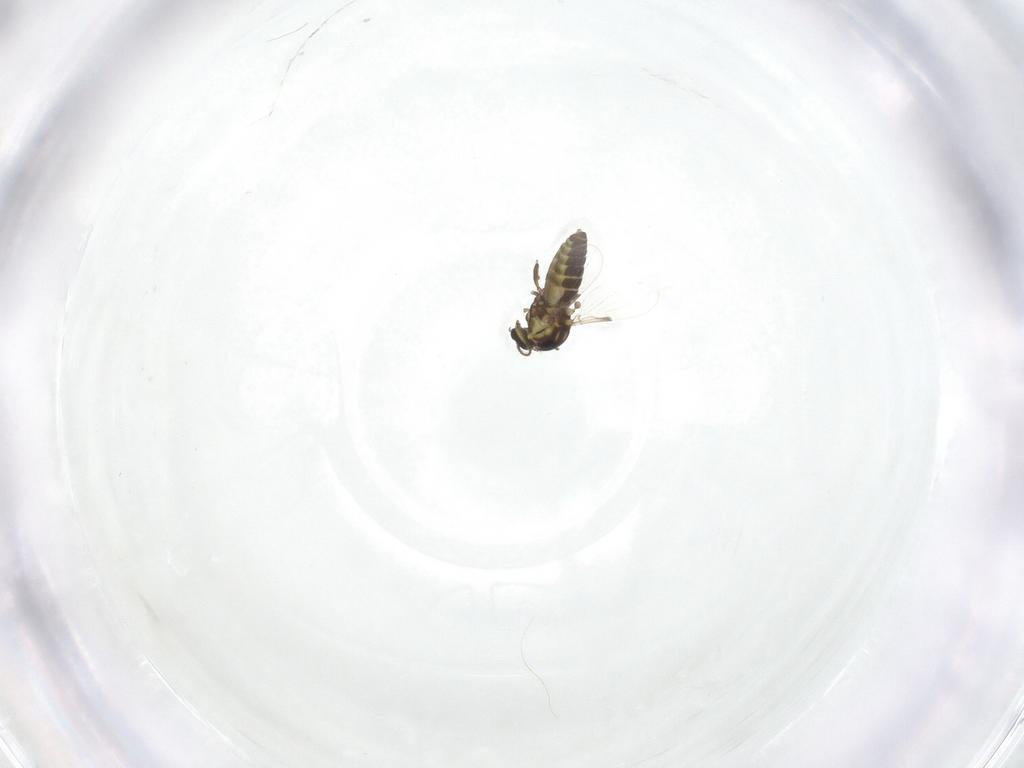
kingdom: Animalia
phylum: Arthropoda
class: Insecta
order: Diptera
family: Ceratopogonidae
